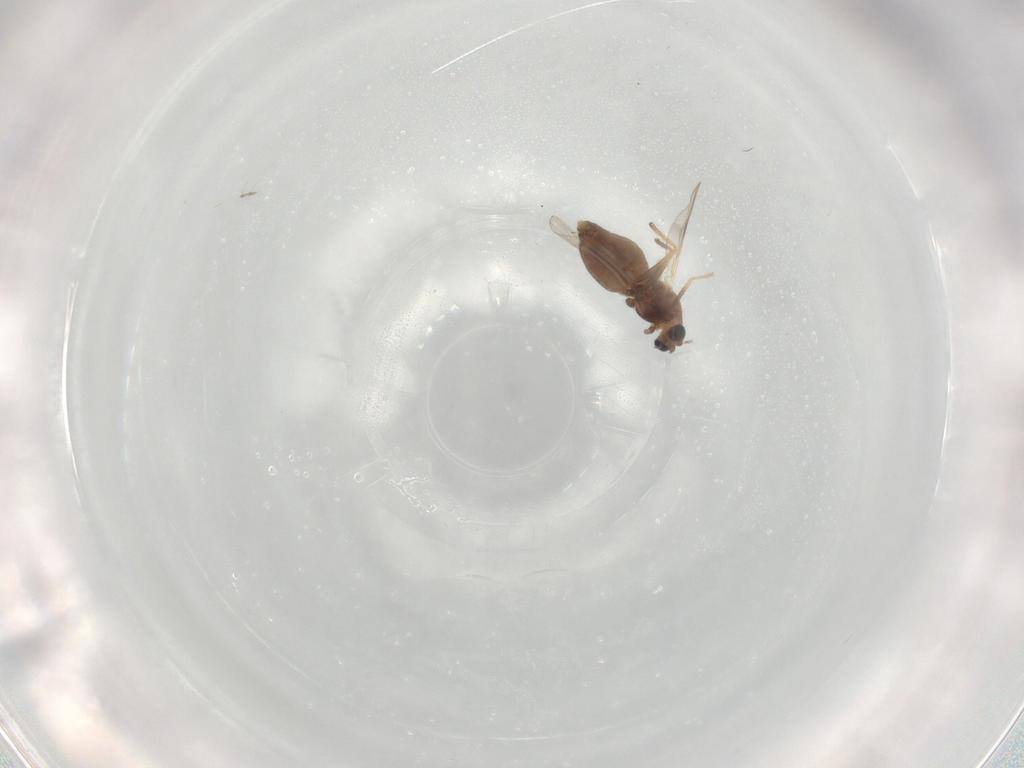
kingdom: Animalia
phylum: Arthropoda
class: Insecta
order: Diptera
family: Chironomidae
